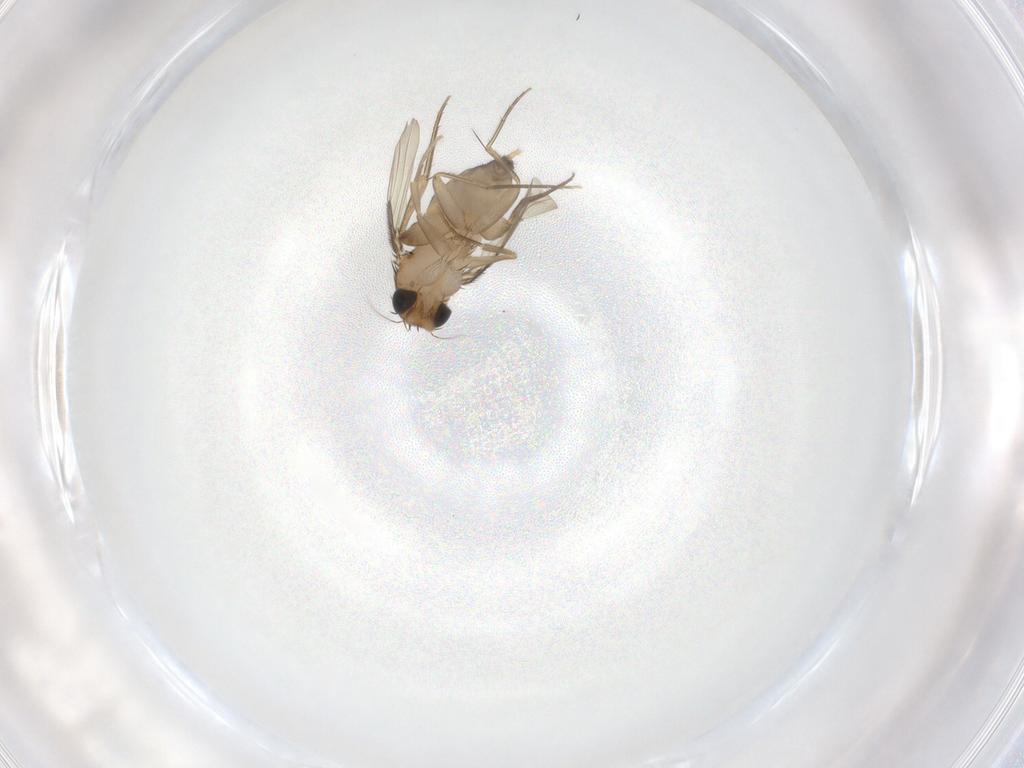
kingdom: Animalia
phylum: Arthropoda
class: Insecta
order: Diptera
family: Phoridae
